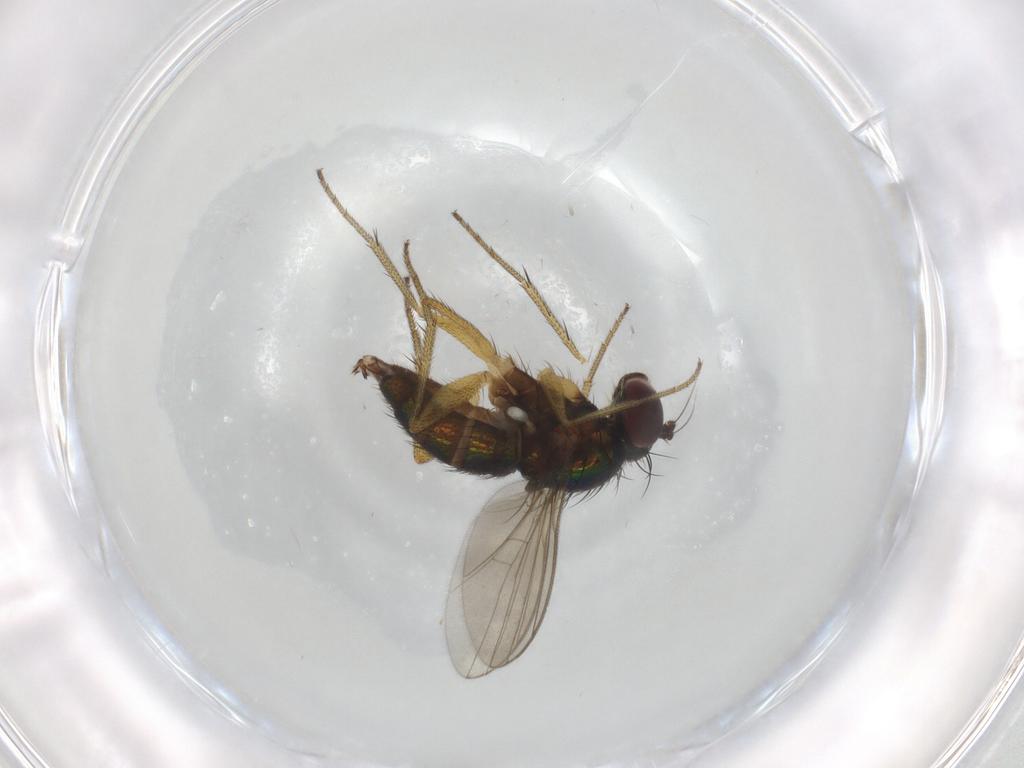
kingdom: Animalia
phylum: Arthropoda
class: Insecta
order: Diptera
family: Dolichopodidae
